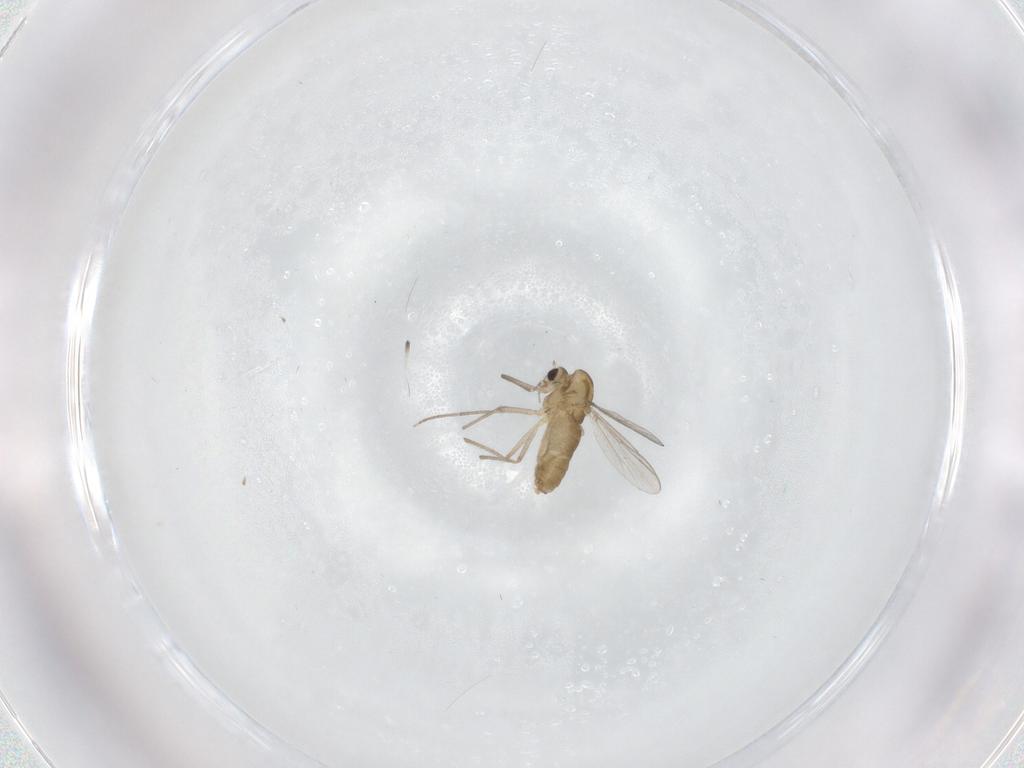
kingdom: Animalia
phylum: Arthropoda
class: Insecta
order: Diptera
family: Chironomidae
